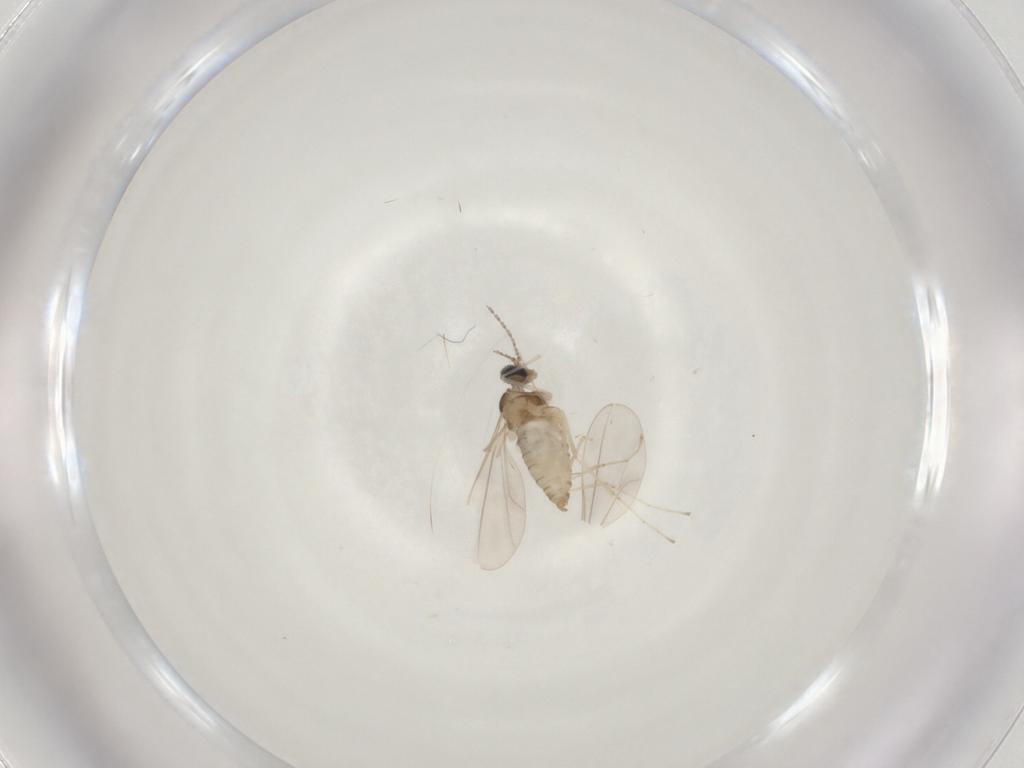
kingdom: Animalia
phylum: Arthropoda
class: Insecta
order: Diptera
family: Cecidomyiidae
